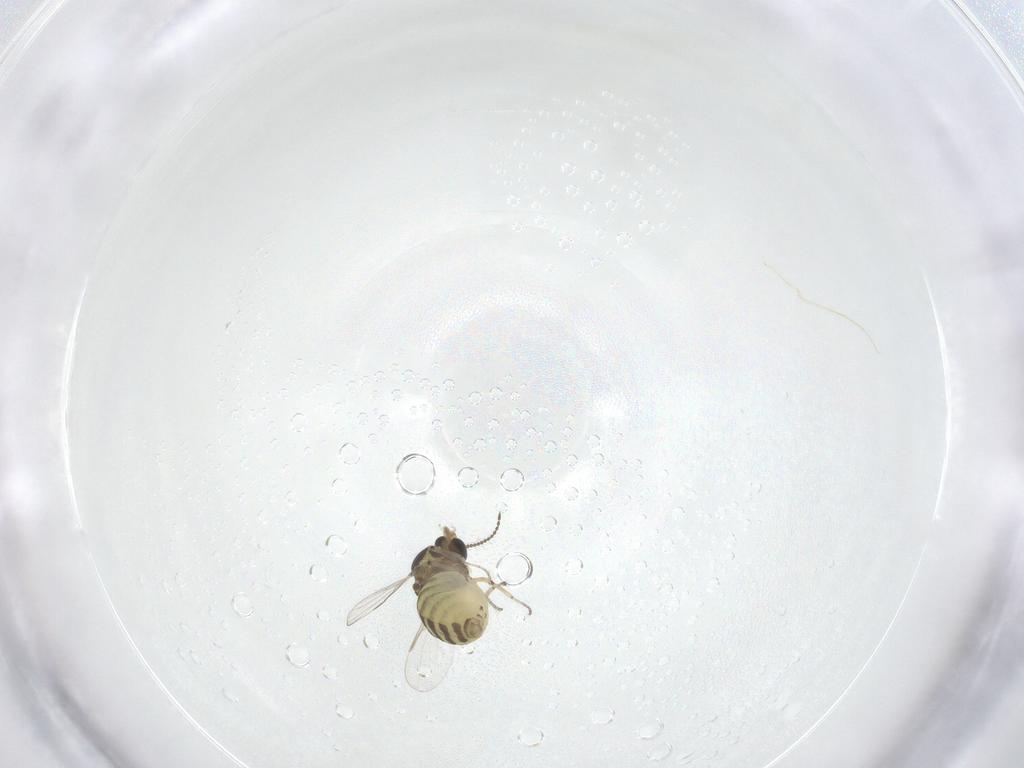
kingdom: Animalia
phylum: Arthropoda
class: Insecta
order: Diptera
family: Ceratopogonidae
